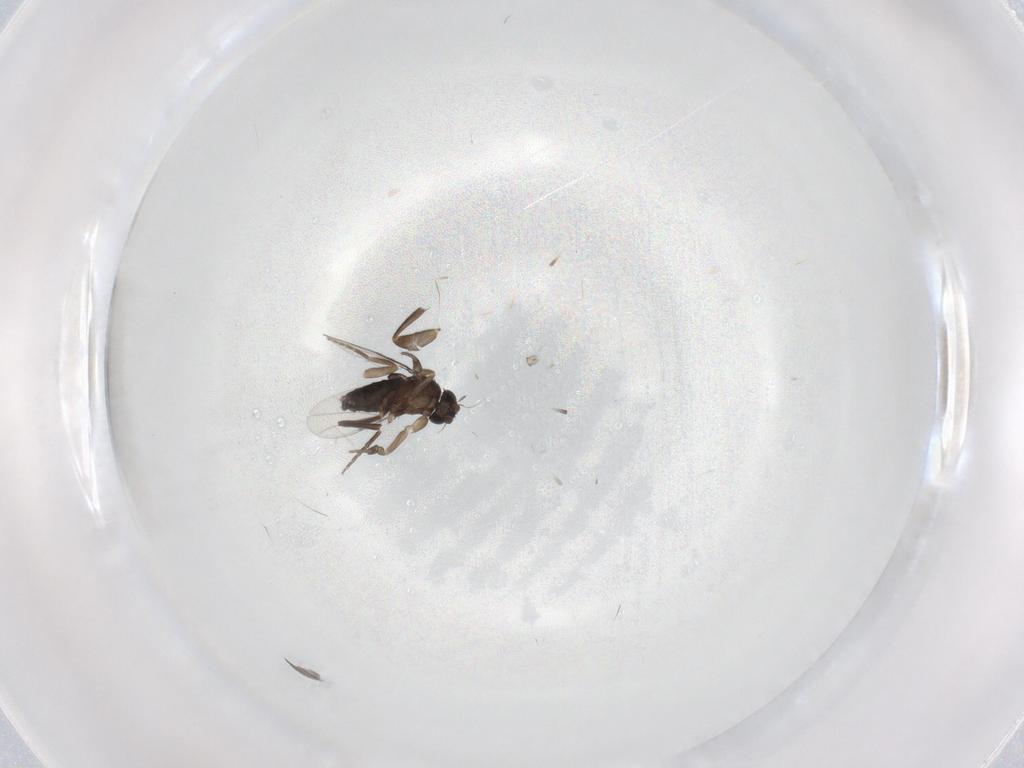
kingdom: Animalia
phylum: Arthropoda
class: Insecta
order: Diptera
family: Phoridae
